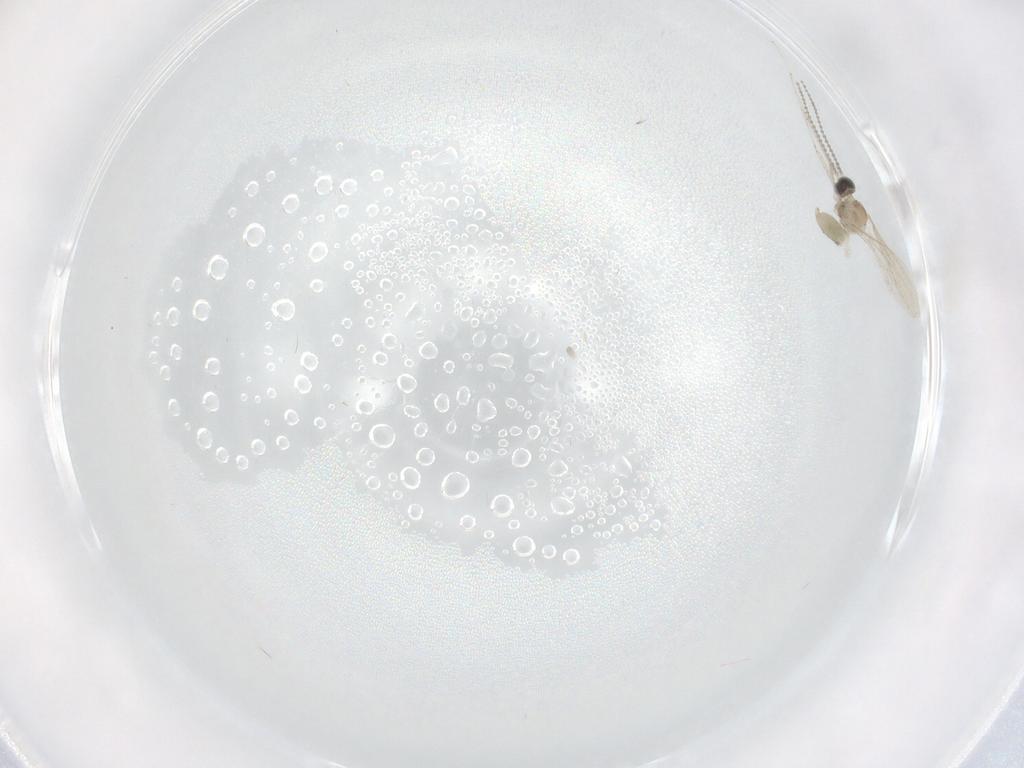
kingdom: Animalia
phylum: Arthropoda
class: Insecta
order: Diptera
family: Cecidomyiidae
